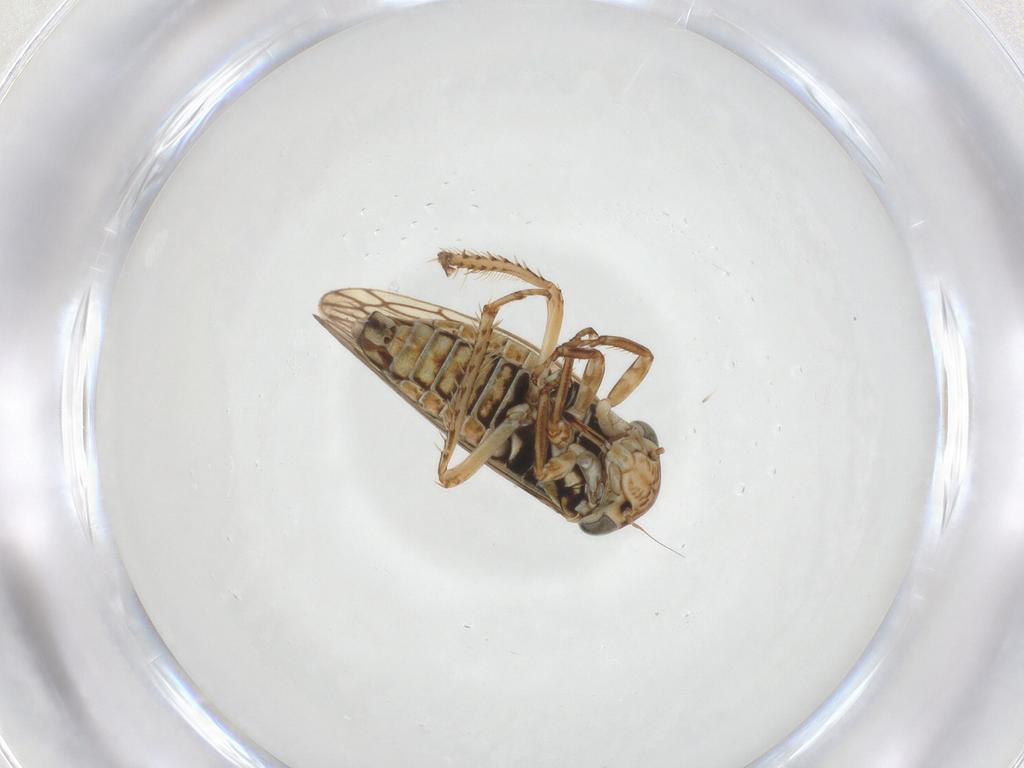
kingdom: Animalia
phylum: Arthropoda
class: Insecta
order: Hemiptera
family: Cicadellidae
